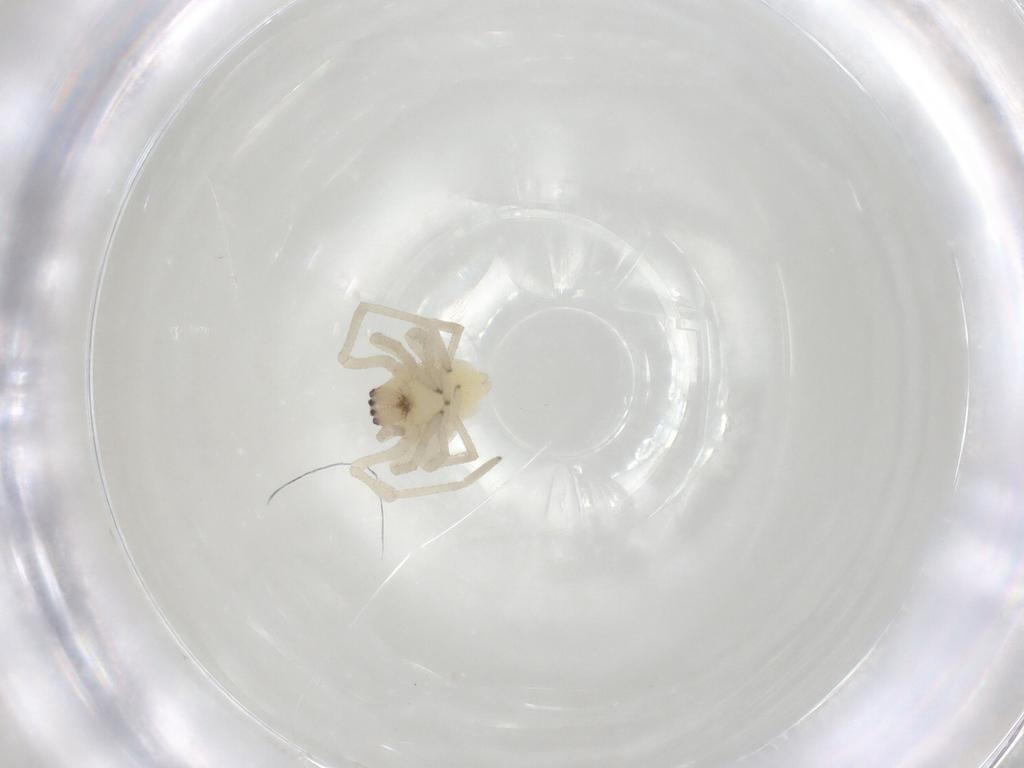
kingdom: Animalia
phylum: Arthropoda
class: Arachnida
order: Araneae
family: Cheiracanthiidae
